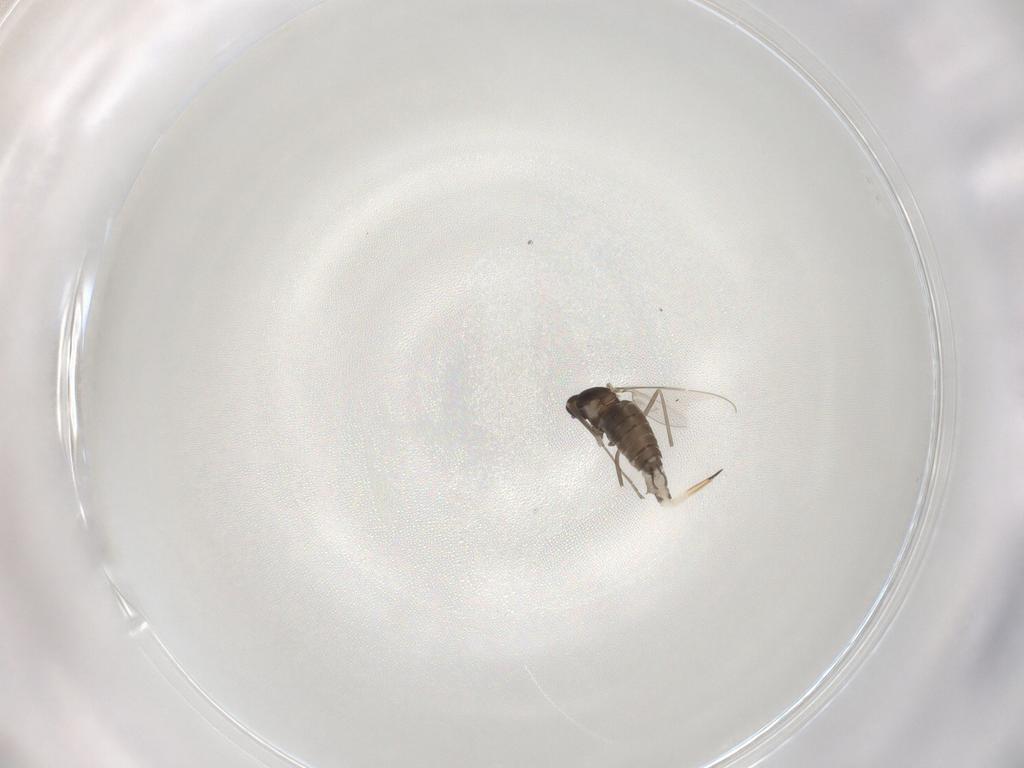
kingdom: Animalia
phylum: Arthropoda
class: Insecta
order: Diptera
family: Cecidomyiidae
